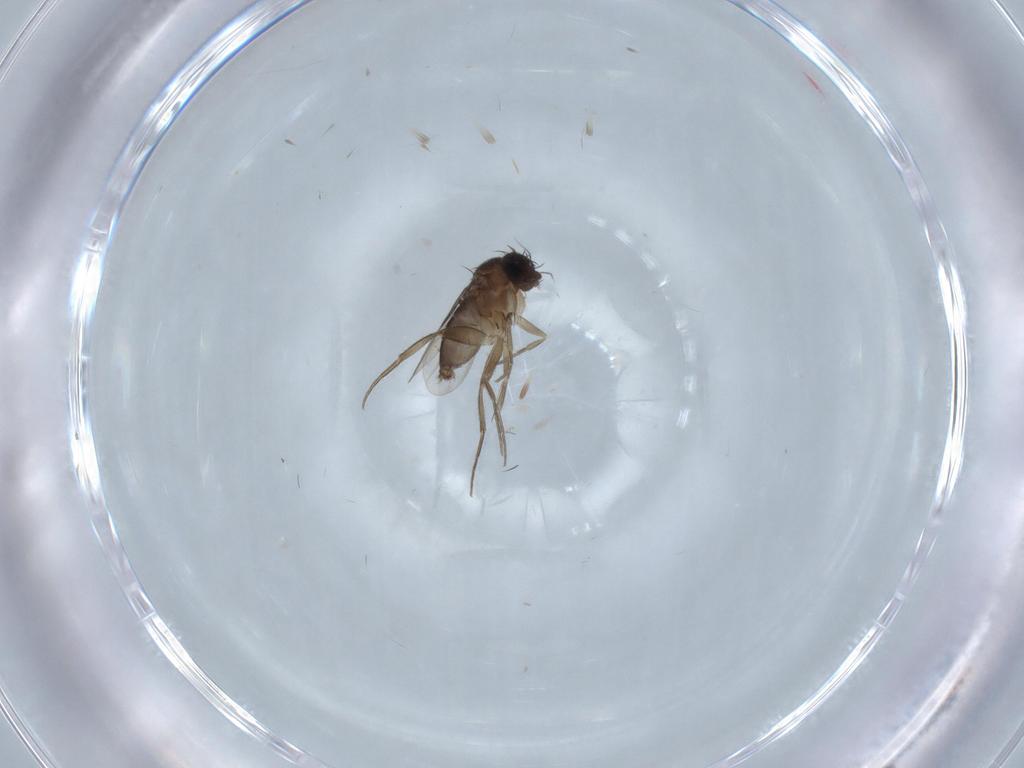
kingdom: Animalia
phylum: Arthropoda
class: Insecta
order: Diptera
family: Phoridae
